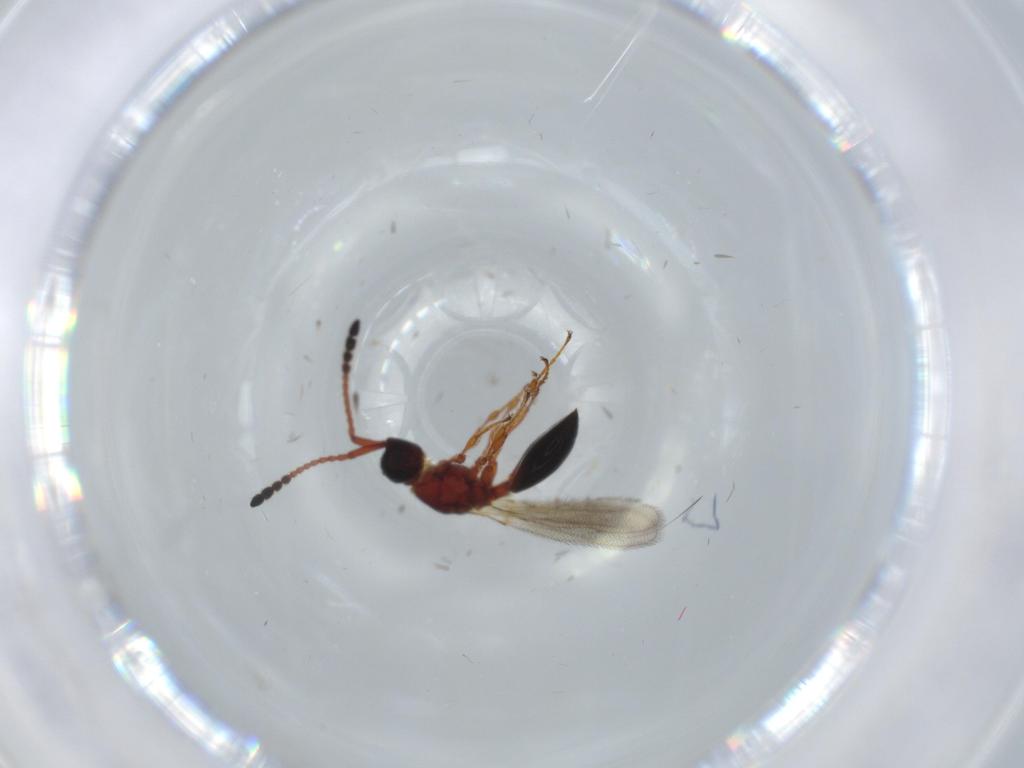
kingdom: Animalia
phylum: Arthropoda
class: Insecta
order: Hymenoptera
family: Diapriidae
